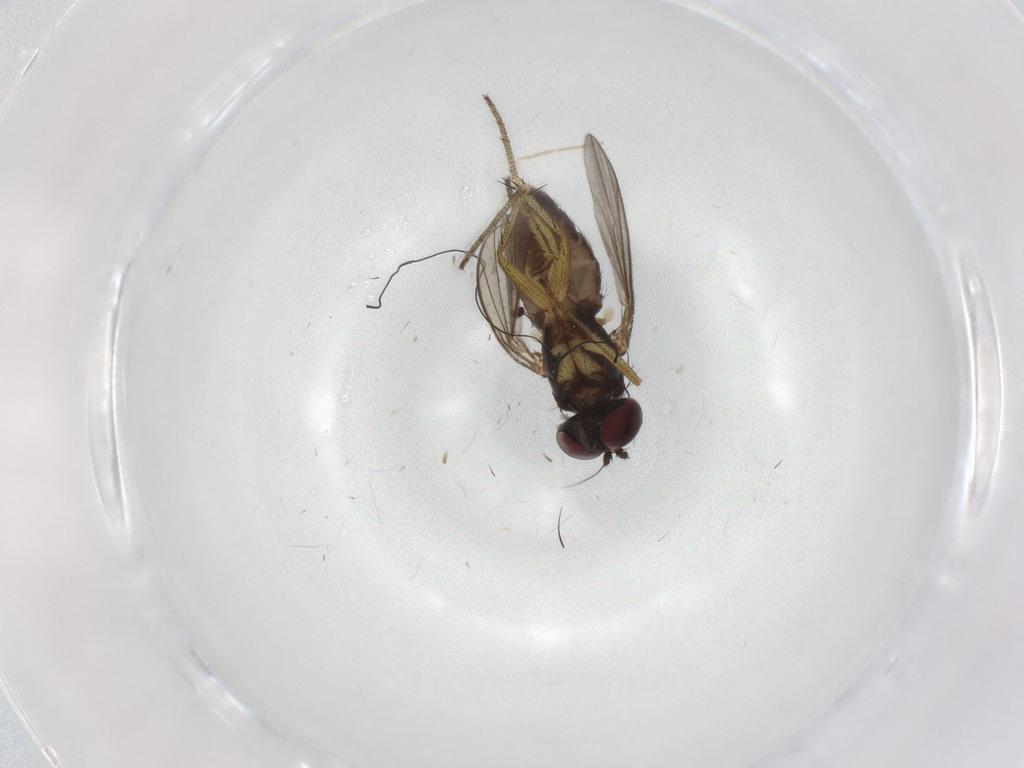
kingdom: Animalia
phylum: Arthropoda
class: Insecta
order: Diptera
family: Dolichopodidae
